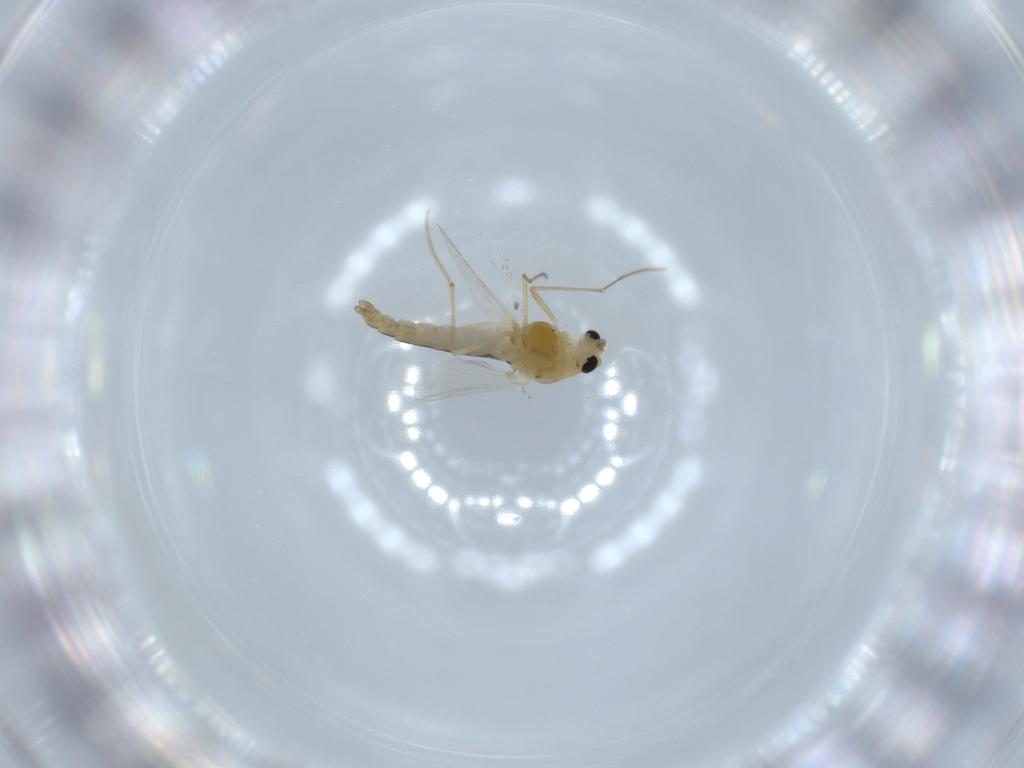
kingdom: Animalia
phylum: Arthropoda
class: Insecta
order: Diptera
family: Chironomidae
